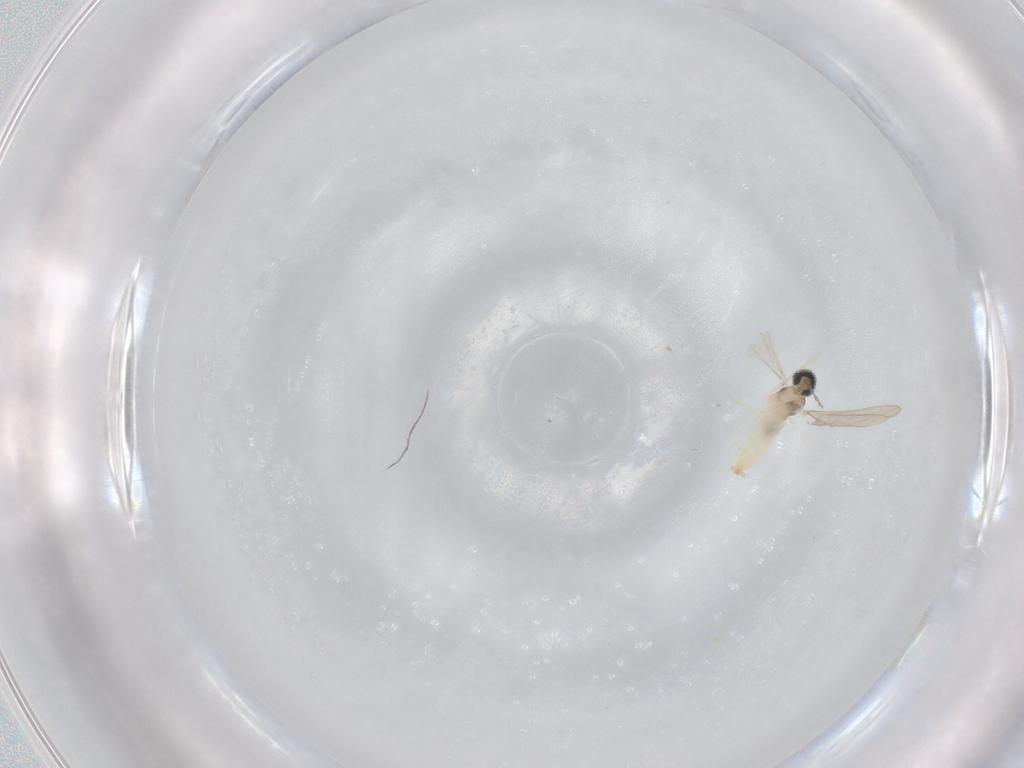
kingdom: Animalia
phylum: Arthropoda
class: Insecta
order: Diptera
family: Cecidomyiidae
